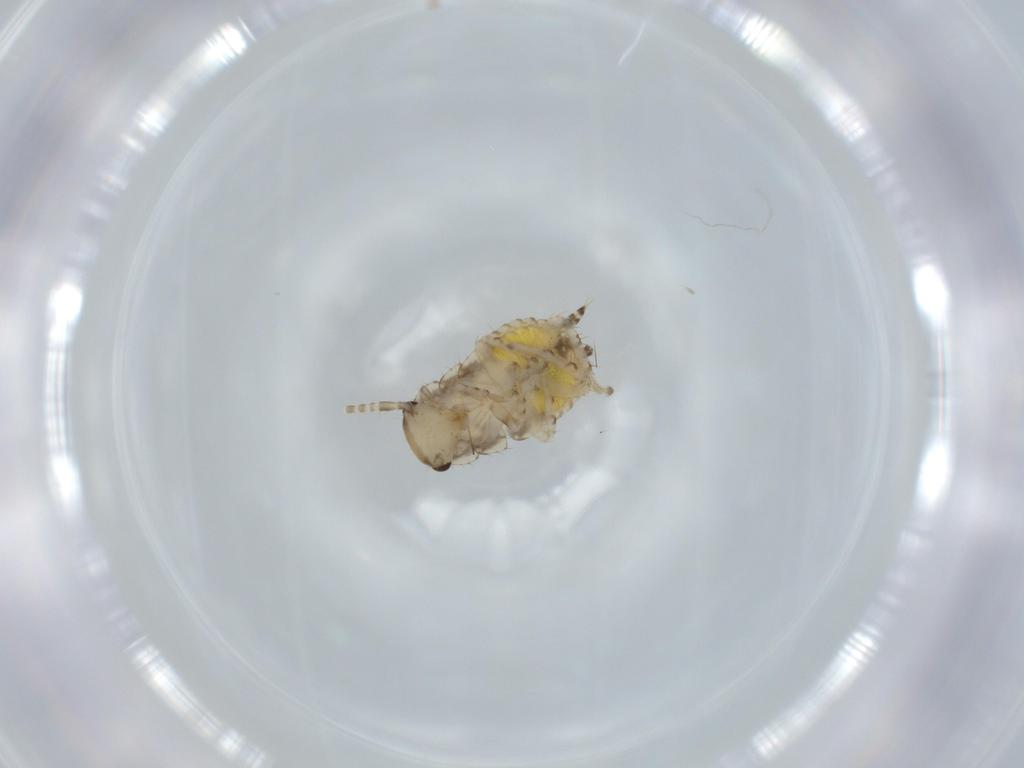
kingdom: Animalia
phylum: Arthropoda
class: Insecta
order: Blattodea
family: Ectobiidae
